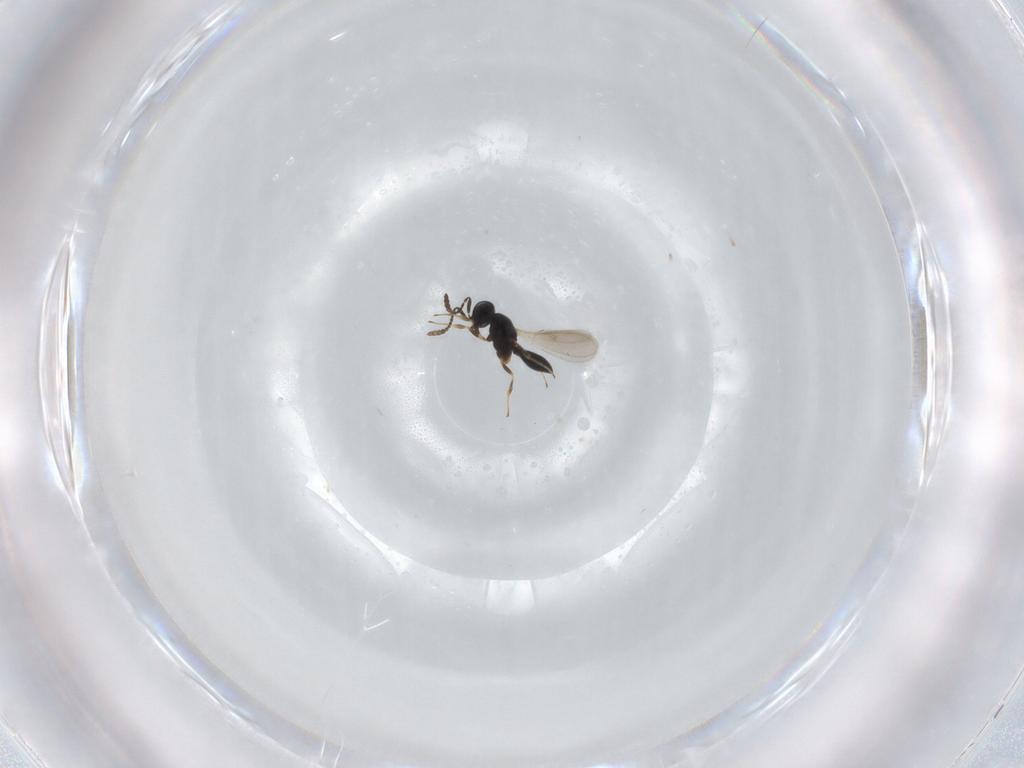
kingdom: Animalia
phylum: Arthropoda
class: Insecta
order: Hymenoptera
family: Scelionidae
